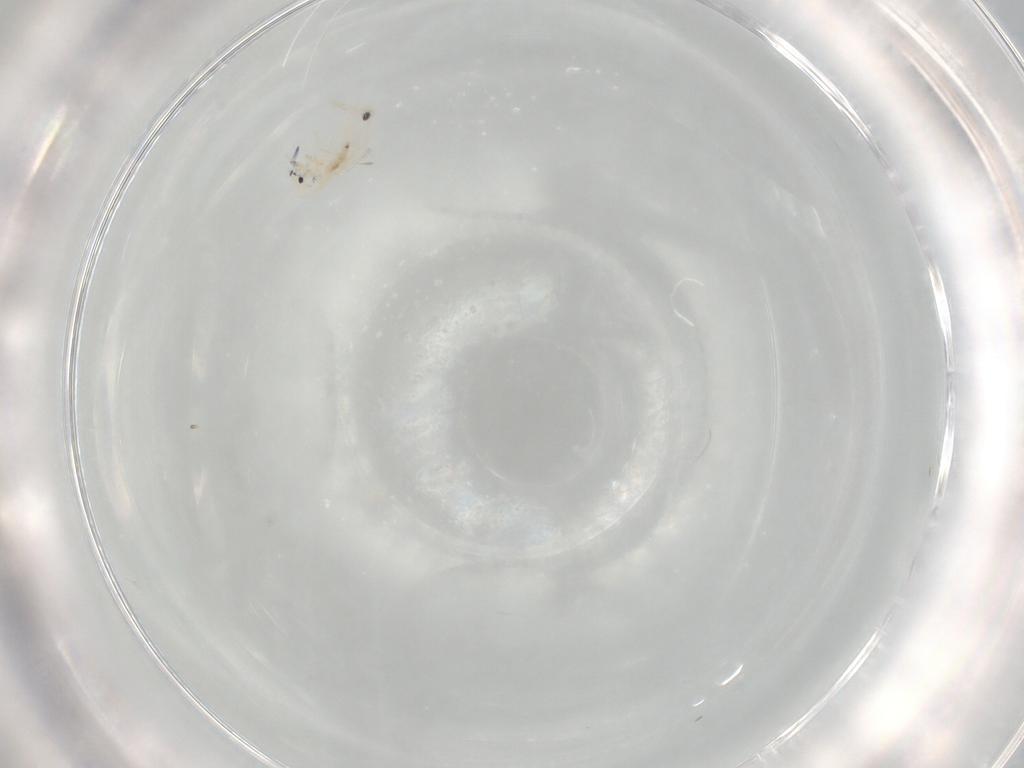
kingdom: Animalia
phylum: Arthropoda
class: Collembola
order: Entomobryomorpha
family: Entomobryidae
